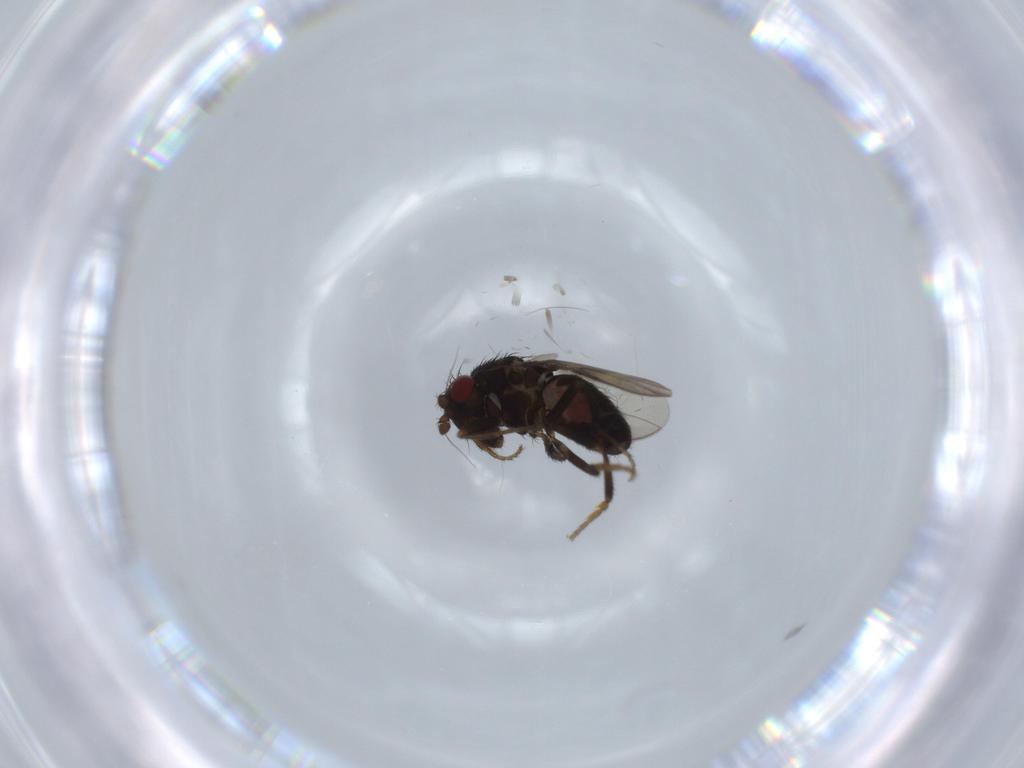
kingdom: Animalia
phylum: Arthropoda
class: Insecta
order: Diptera
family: Sphaeroceridae
